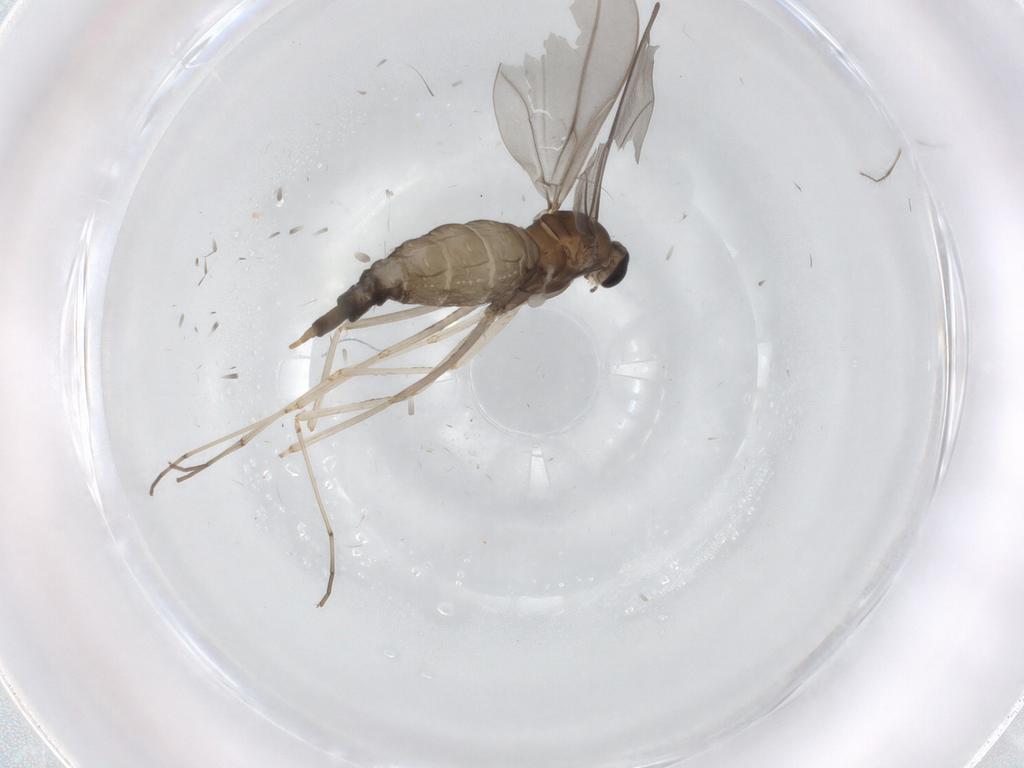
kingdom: Animalia
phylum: Arthropoda
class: Insecta
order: Diptera
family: Cecidomyiidae
